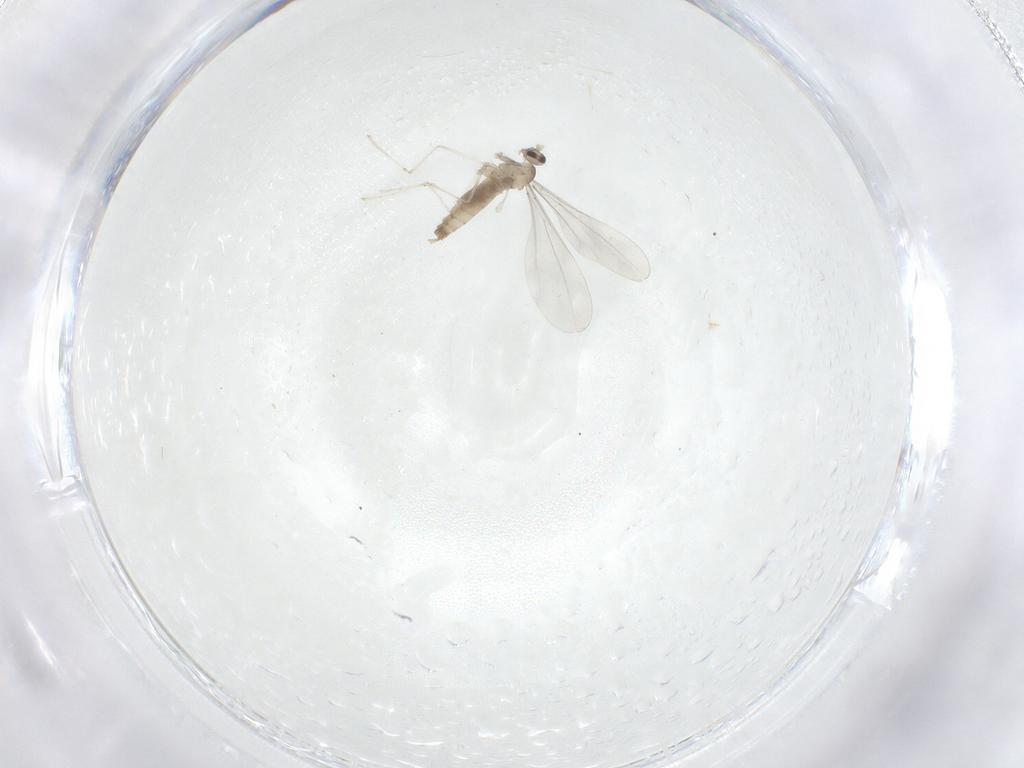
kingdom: Animalia
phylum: Arthropoda
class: Insecta
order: Diptera
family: Cecidomyiidae
